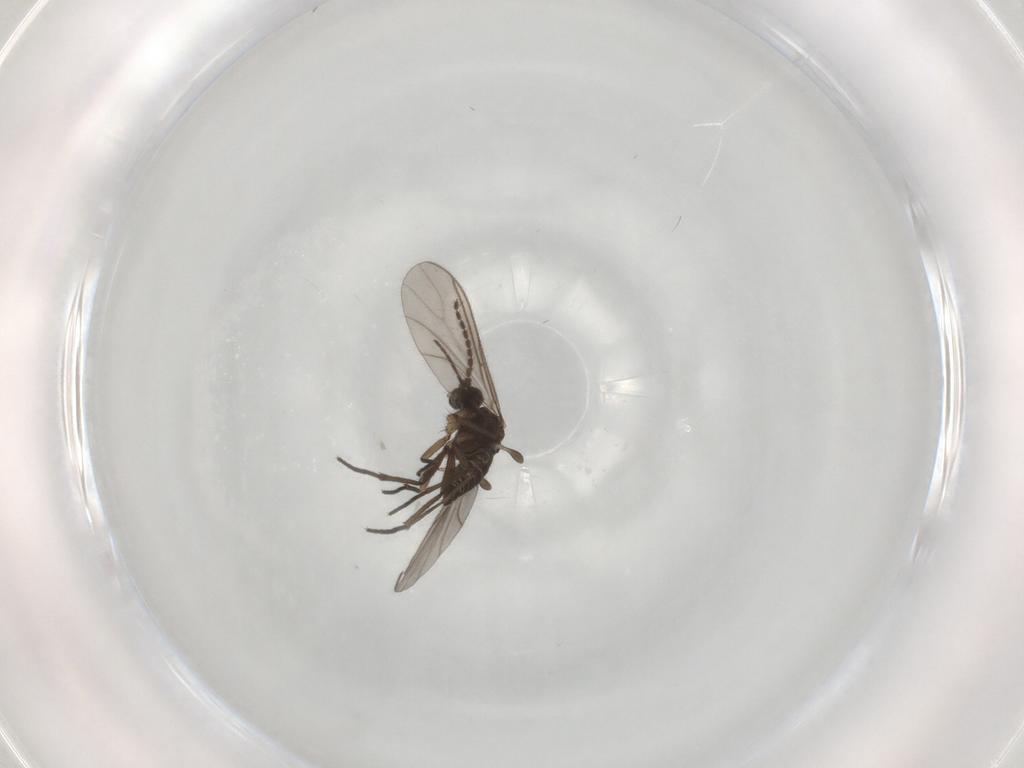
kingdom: Animalia
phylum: Arthropoda
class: Insecta
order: Diptera
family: Sciaridae
